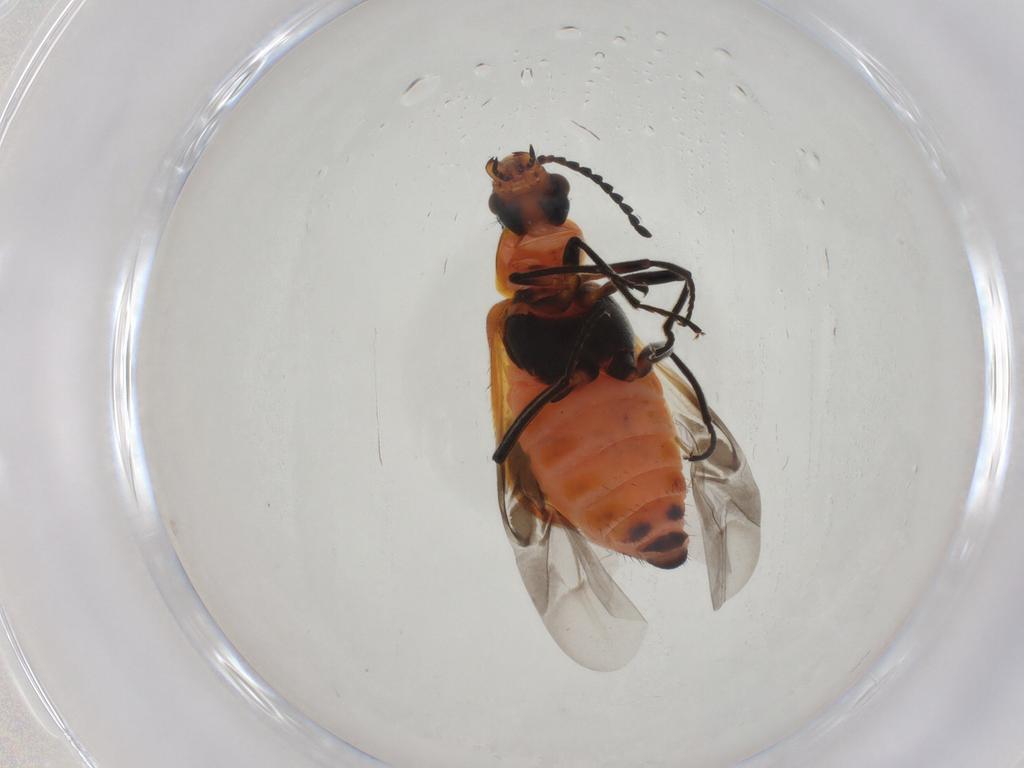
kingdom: Animalia
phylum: Arthropoda
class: Insecta
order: Coleoptera
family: Melyridae
